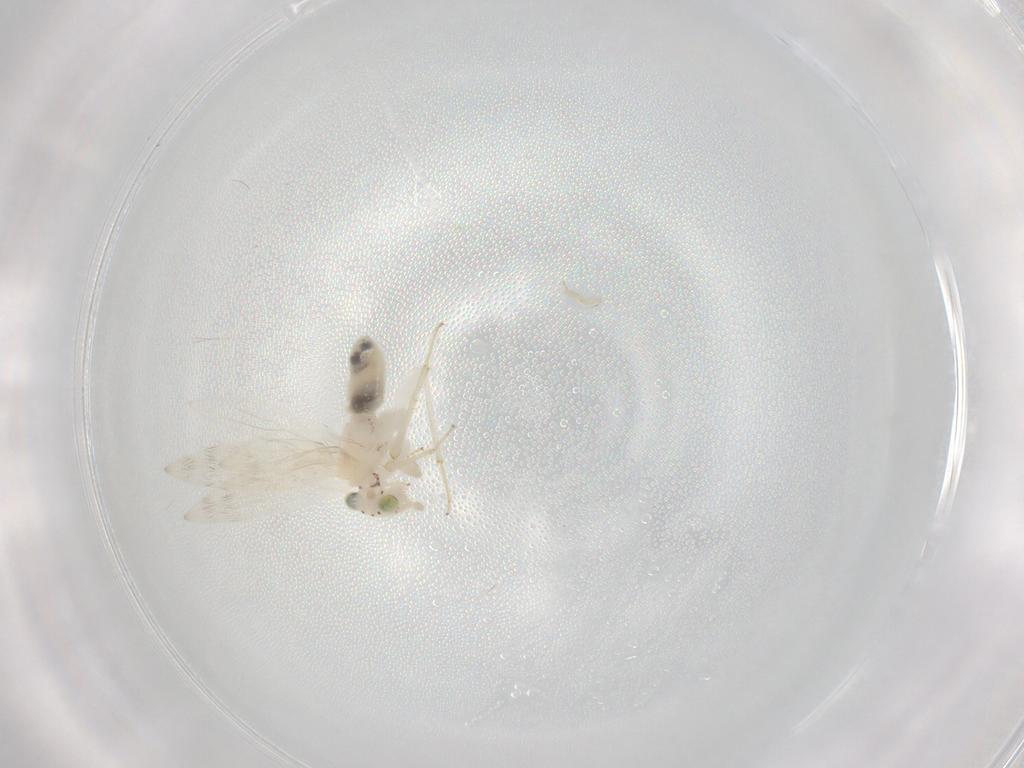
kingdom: Animalia
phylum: Arthropoda
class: Insecta
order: Psocodea
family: Lepidopsocidae
